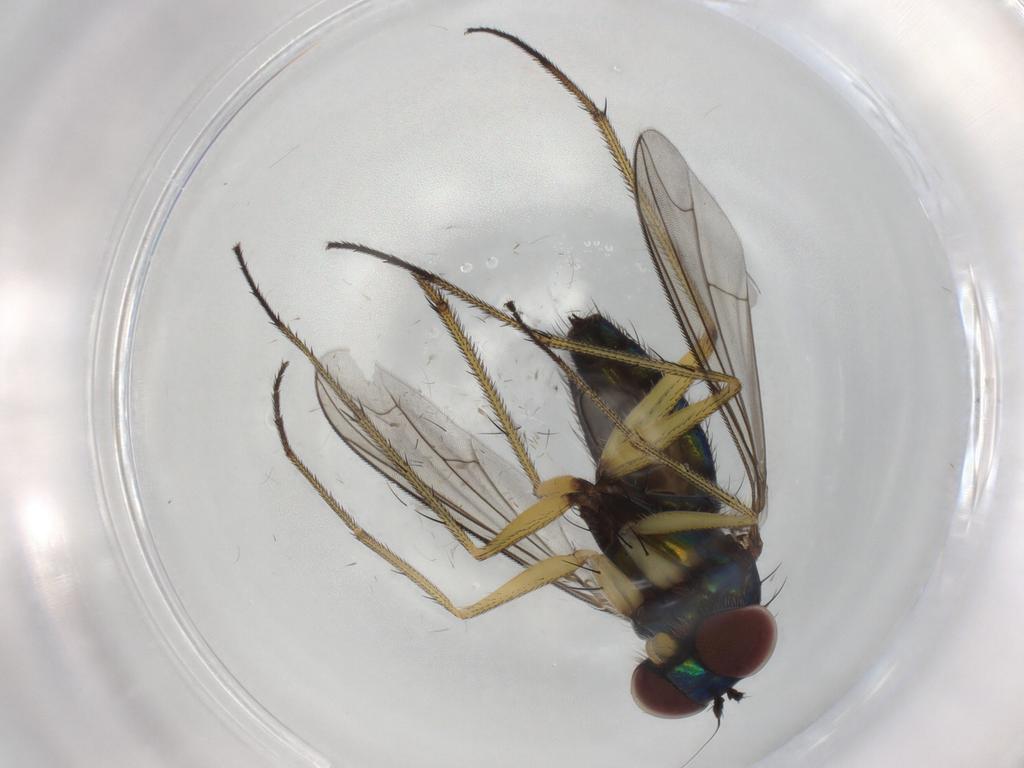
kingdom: Animalia
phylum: Arthropoda
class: Insecta
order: Diptera
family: Dolichopodidae
